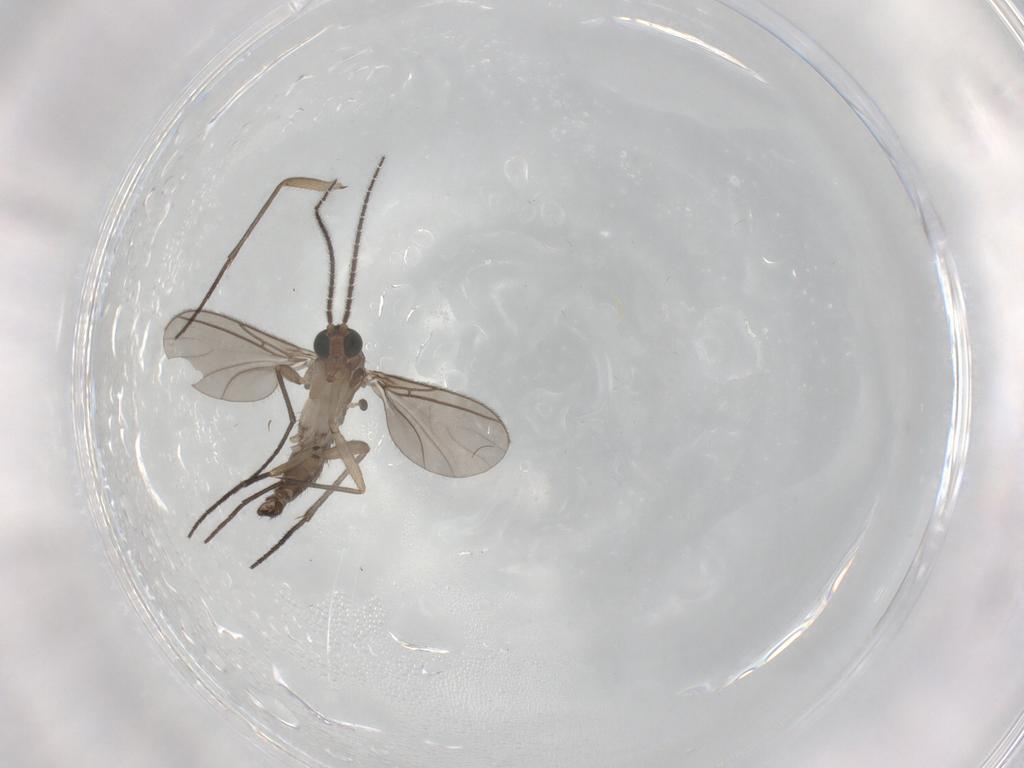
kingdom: Animalia
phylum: Arthropoda
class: Insecta
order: Diptera
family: Sciaridae
